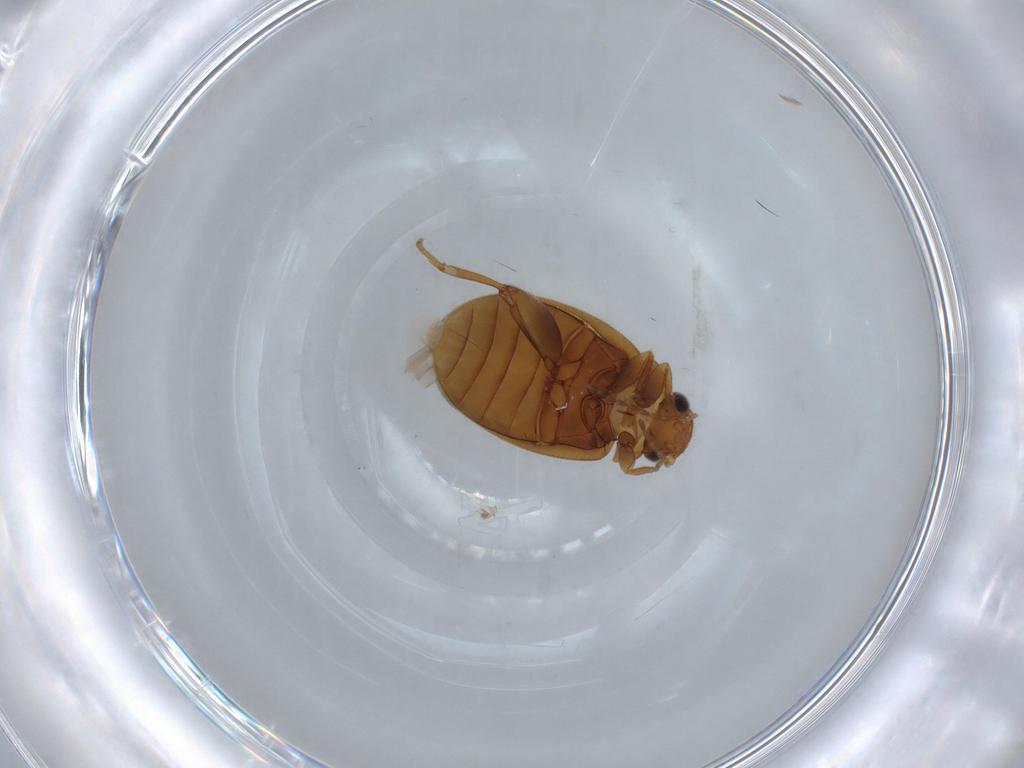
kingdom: Animalia
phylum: Arthropoda
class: Insecta
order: Coleoptera
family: Scirtidae
